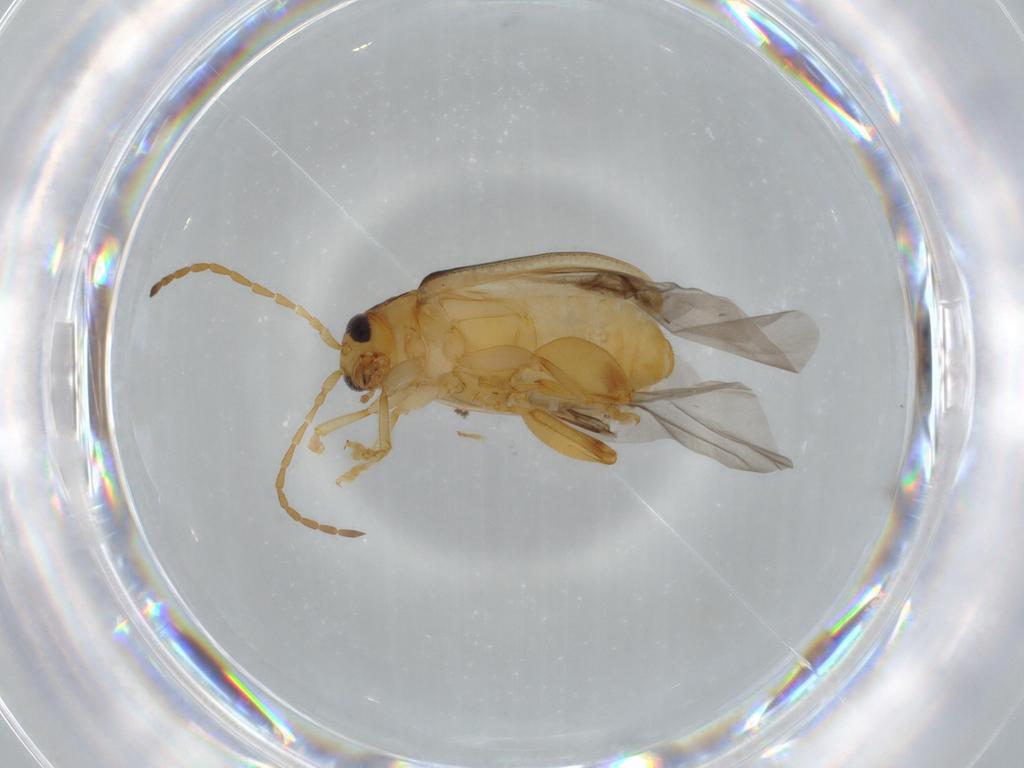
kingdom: Animalia
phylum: Arthropoda
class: Insecta
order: Coleoptera
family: Chrysomelidae
